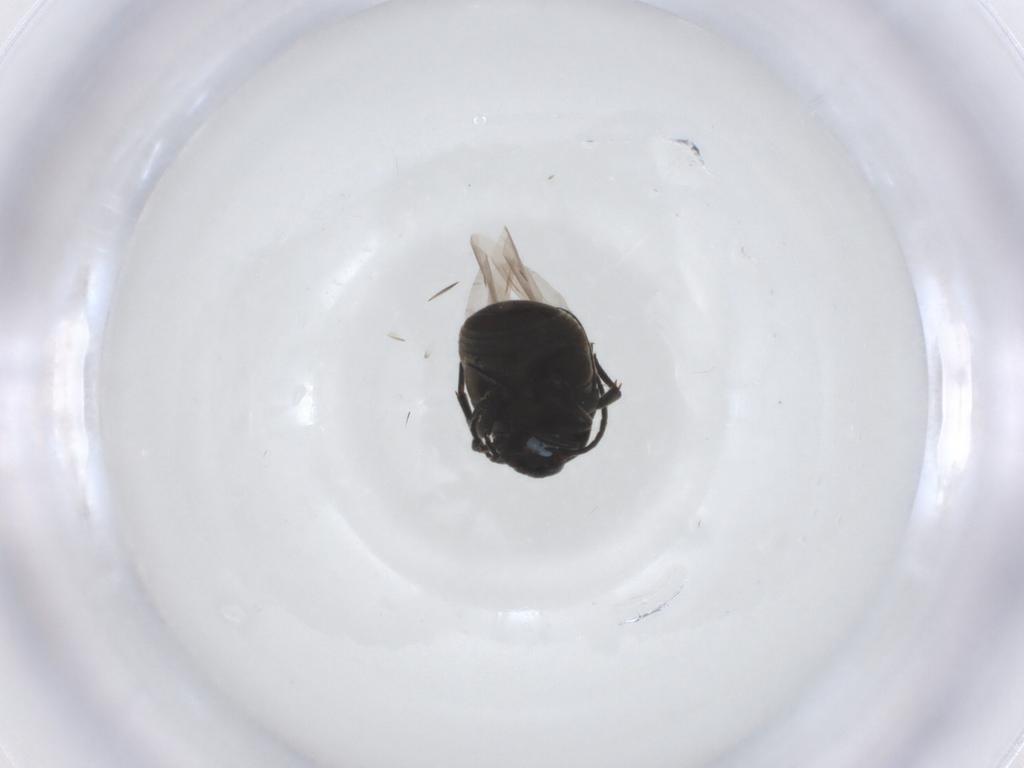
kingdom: Animalia
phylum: Arthropoda
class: Insecta
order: Coleoptera
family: Chrysomelidae
